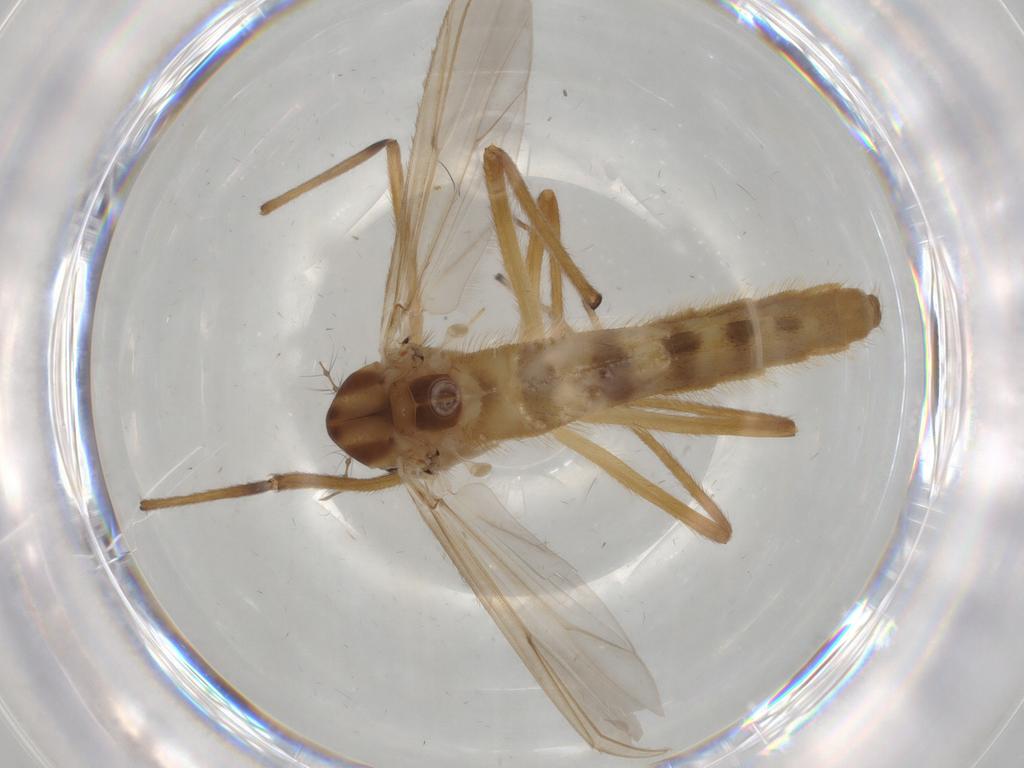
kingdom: Animalia
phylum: Arthropoda
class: Insecta
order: Diptera
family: Chironomidae
